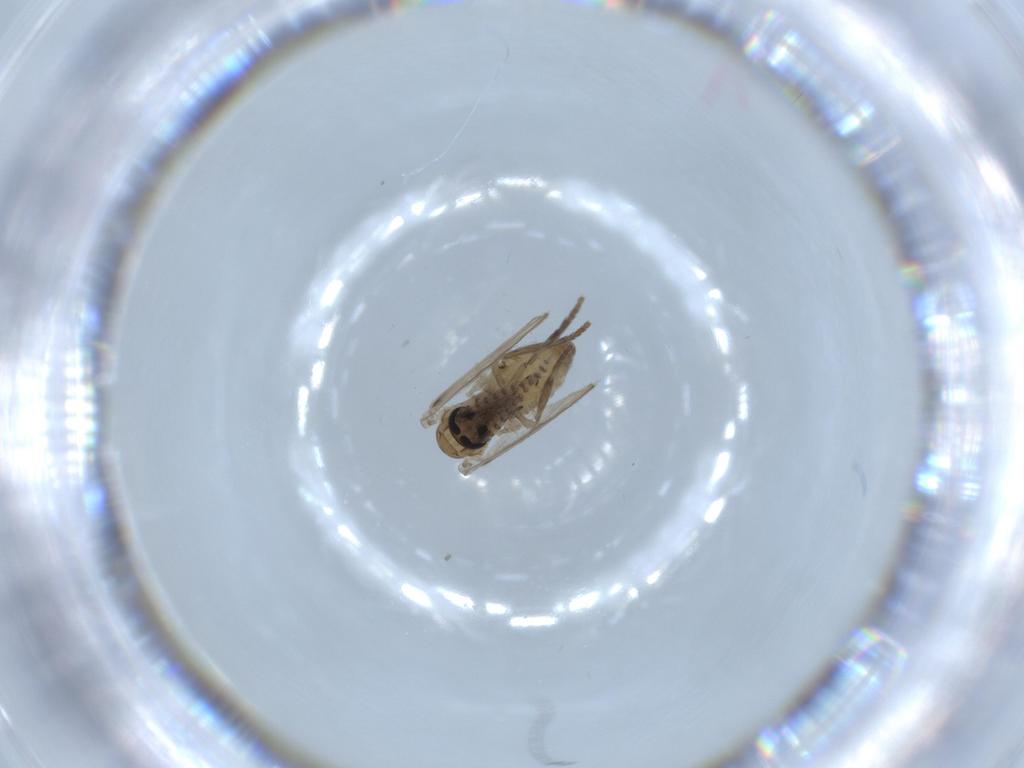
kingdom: Animalia
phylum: Arthropoda
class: Insecta
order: Diptera
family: Psychodidae
